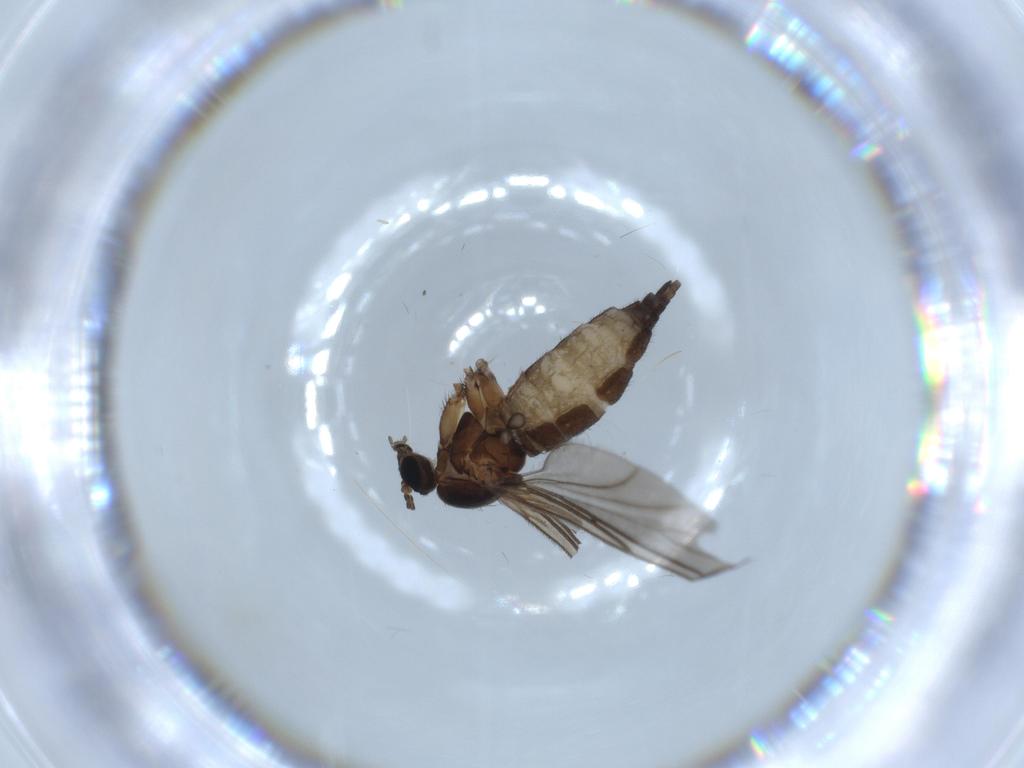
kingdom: Animalia
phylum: Arthropoda
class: Insecta
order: Diptera
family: Sciaridae
